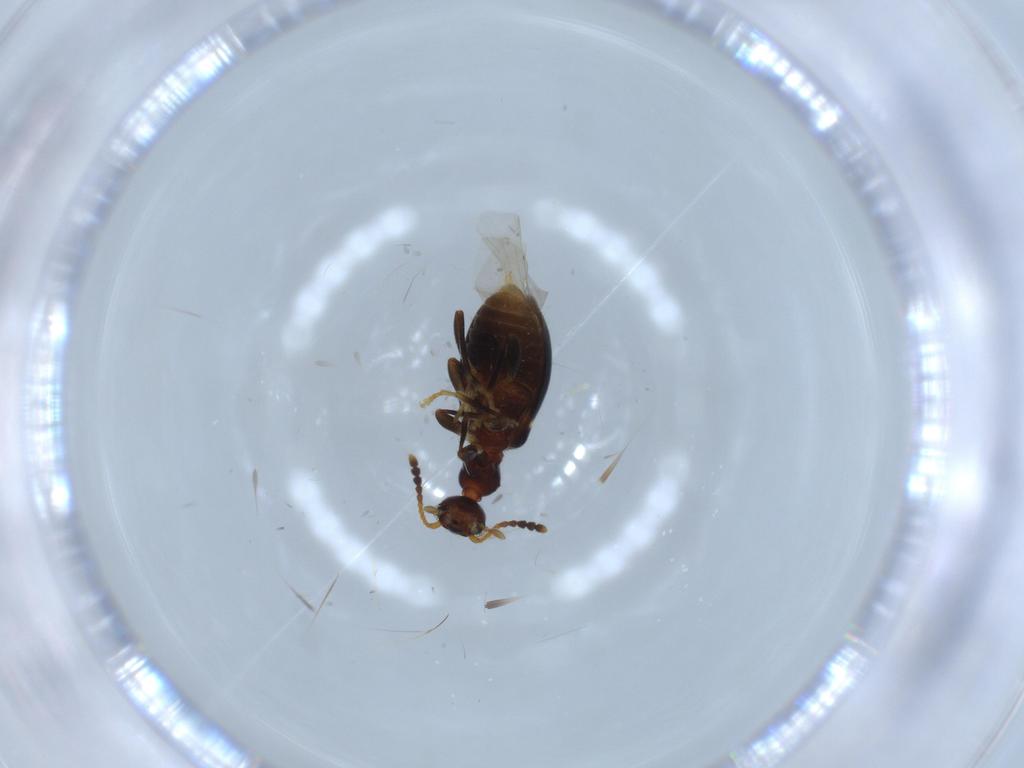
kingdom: Animalia
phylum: Arthropoda
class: Insecta
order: Coleoptera
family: Anthicidae
